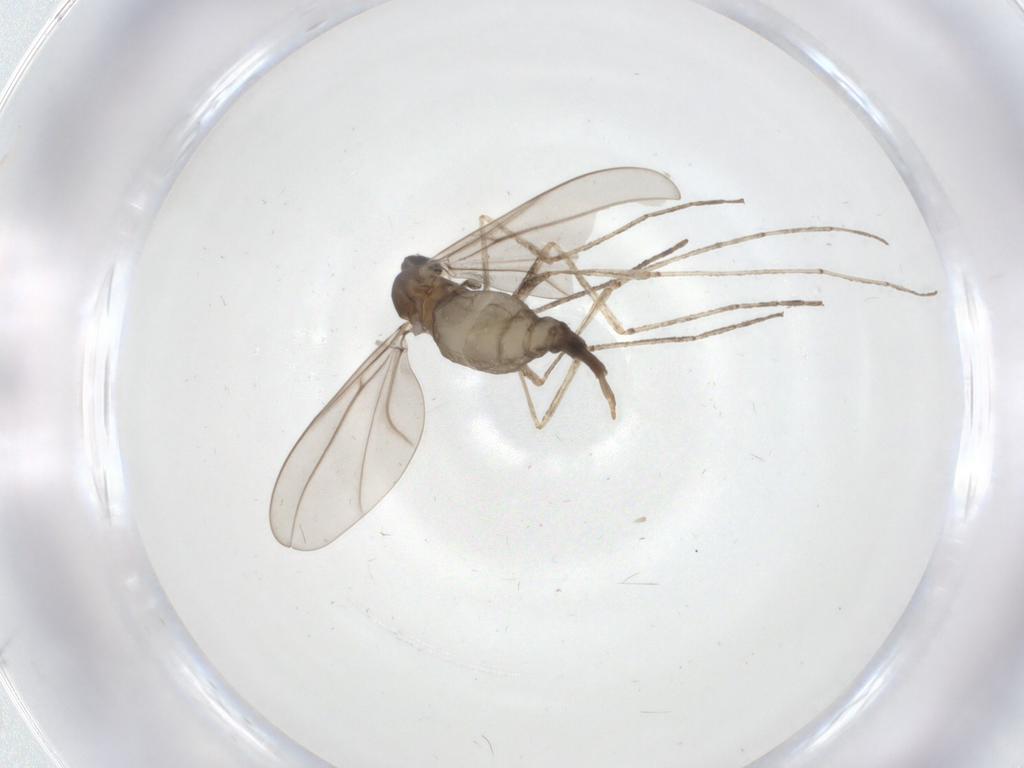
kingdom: Animalia
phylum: Arthropoda
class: Insecta
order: Diptera
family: Cecidomyiidae
